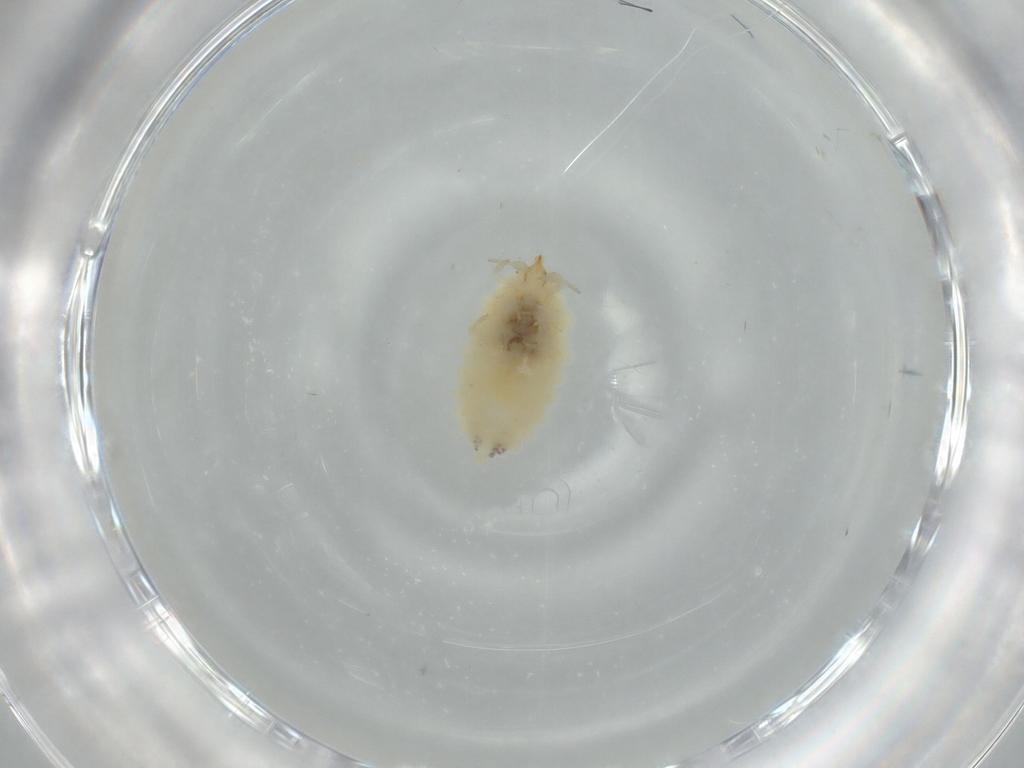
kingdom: Animalia
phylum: Arthropoda
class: Insecta
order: Neuroptera
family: Coniopterygidae
